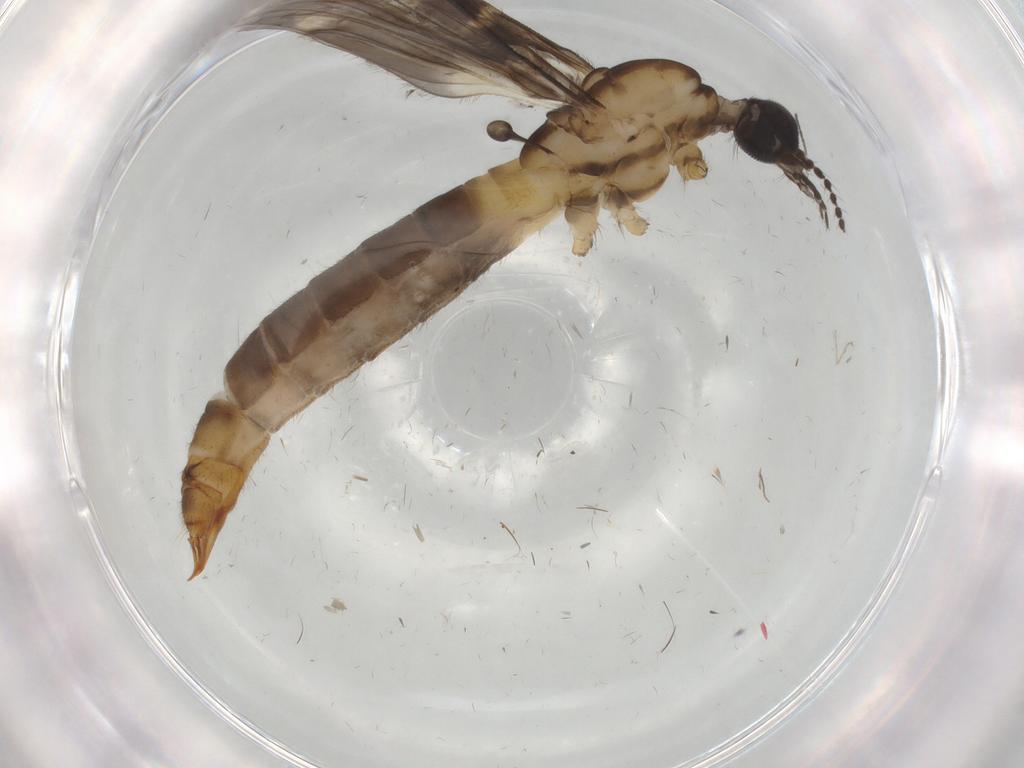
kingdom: Animalia
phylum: Arthropoda
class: Insecta
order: Diptera
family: Limoniidae
